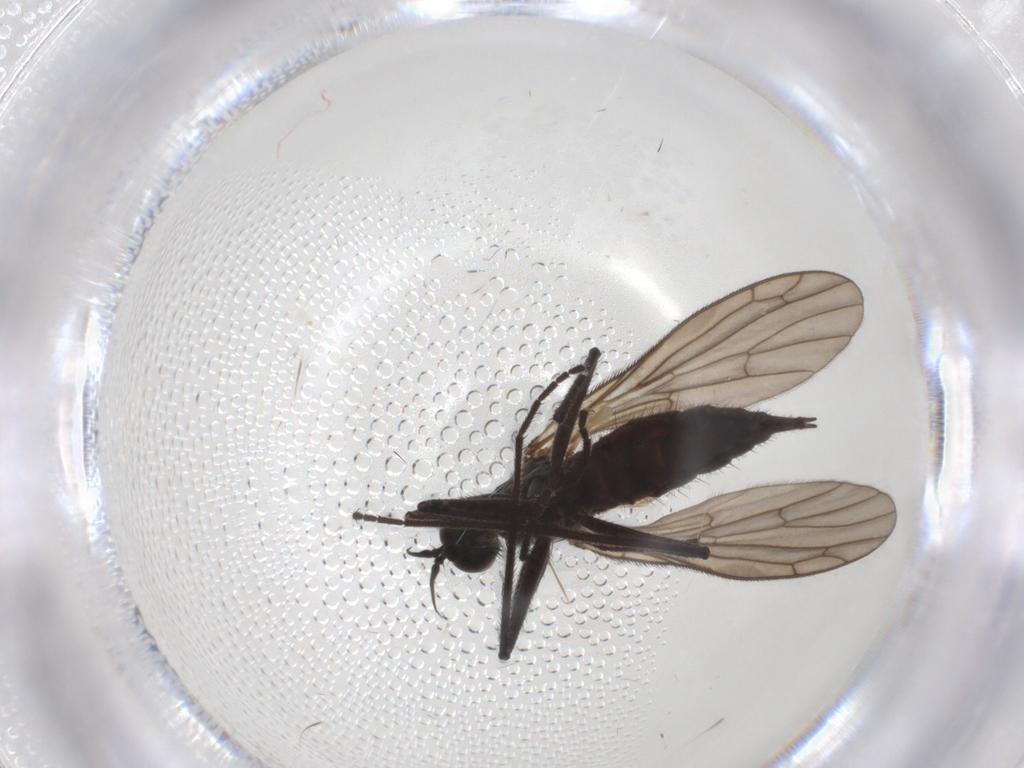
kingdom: Animalia
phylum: Arthropoda
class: Insecta
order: Diptera
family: Empididae
